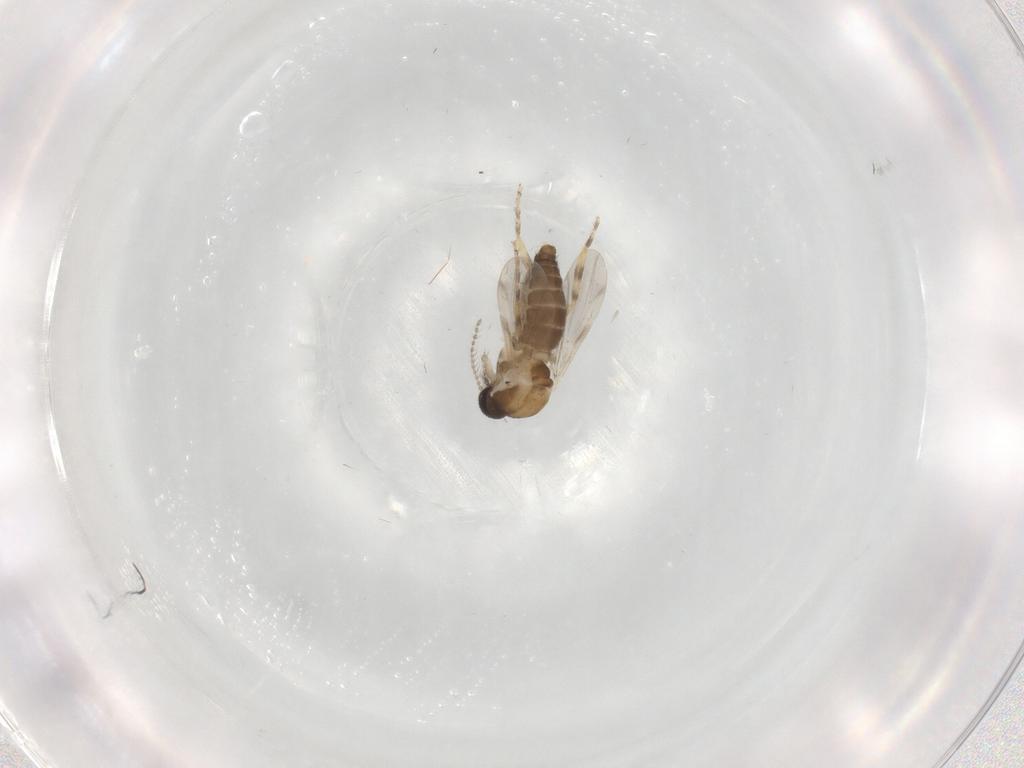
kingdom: Animalia
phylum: Arthropoda
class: Insecta
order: Diptera
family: Ceratopogonidae
